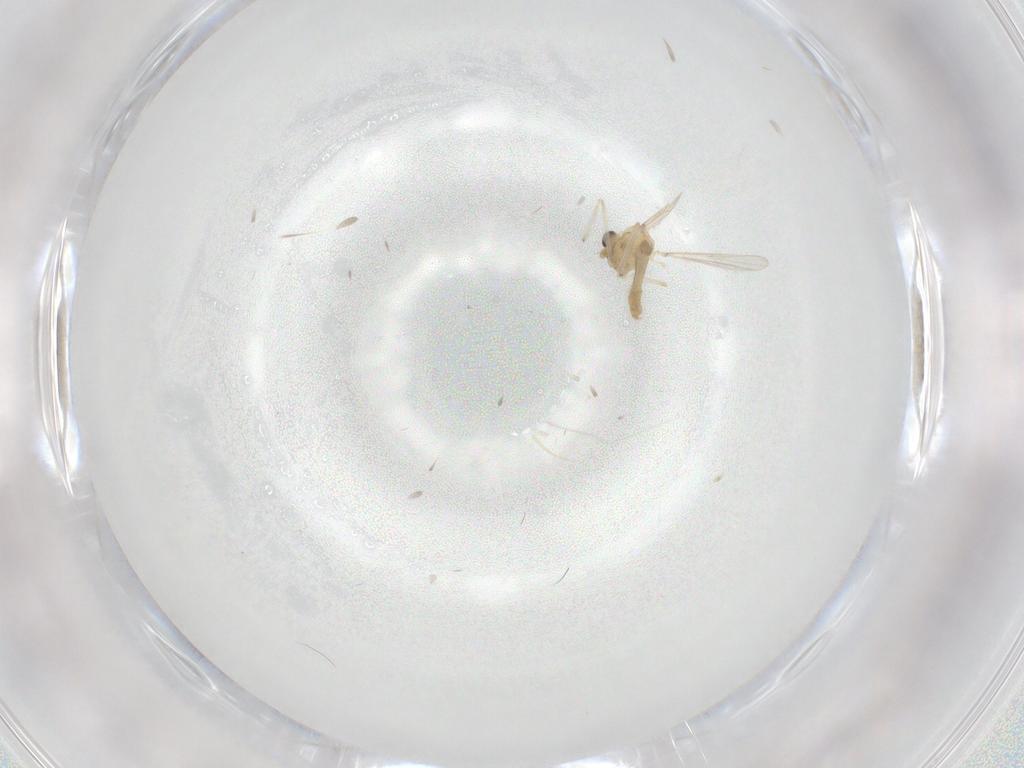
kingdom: Animalia
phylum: Arthropoda
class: Insecta
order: Diptera
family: Chironomidae
